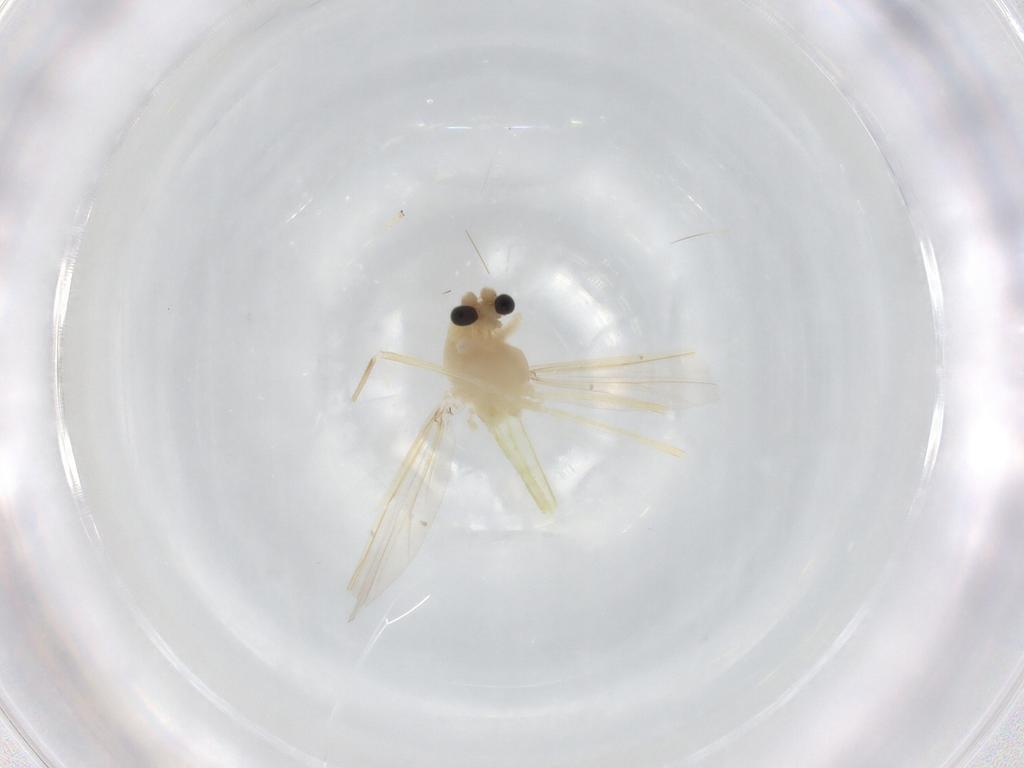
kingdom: Animalia
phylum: Arthropoda
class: Insecta
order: Diptera
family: Chironomidae
